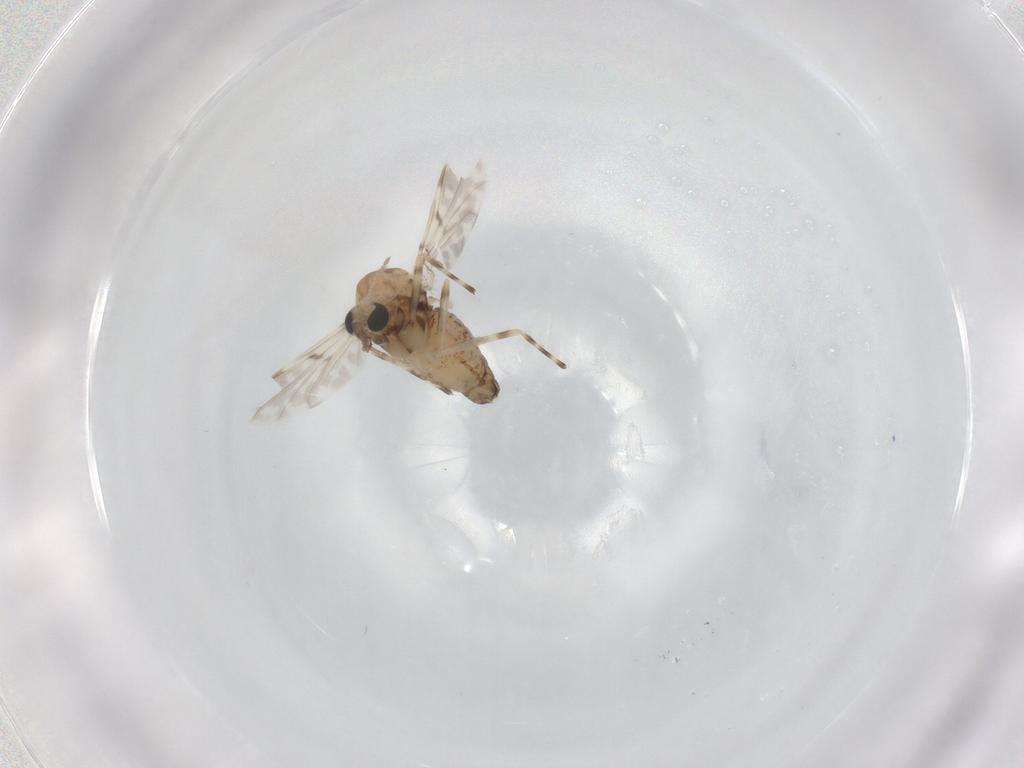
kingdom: Animalia
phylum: Arthropoda
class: Insecta
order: Diptera
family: Chironomidae
